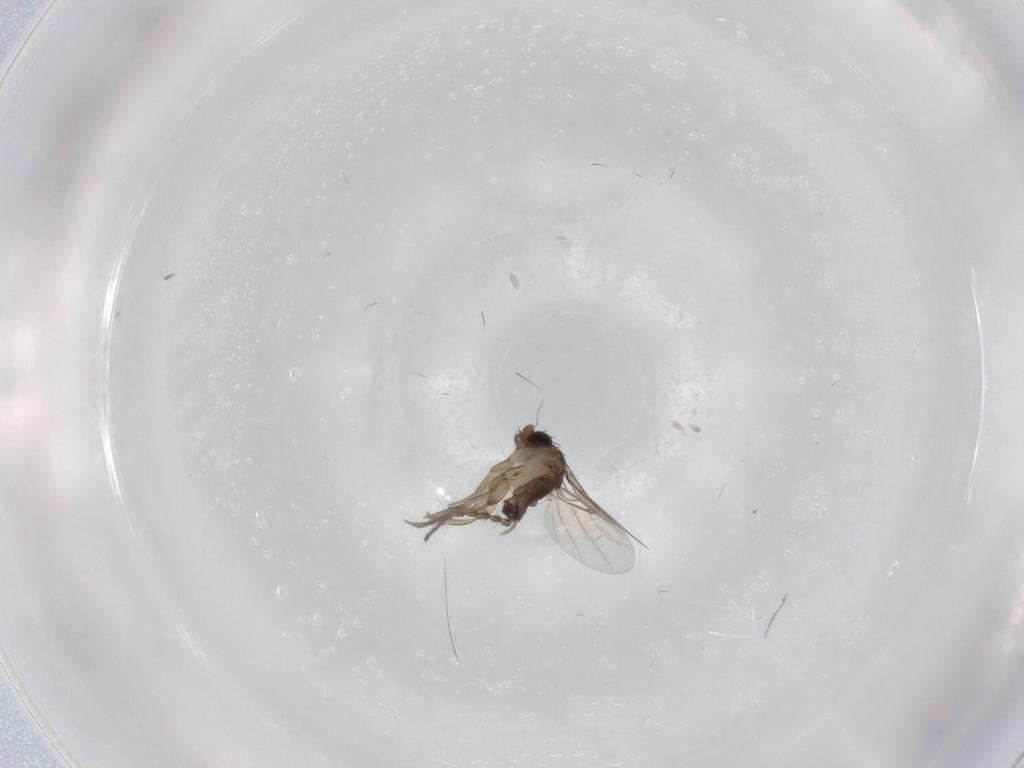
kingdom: Animalia
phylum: Arthropoda
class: Insecta
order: Diptera
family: Phoridae
